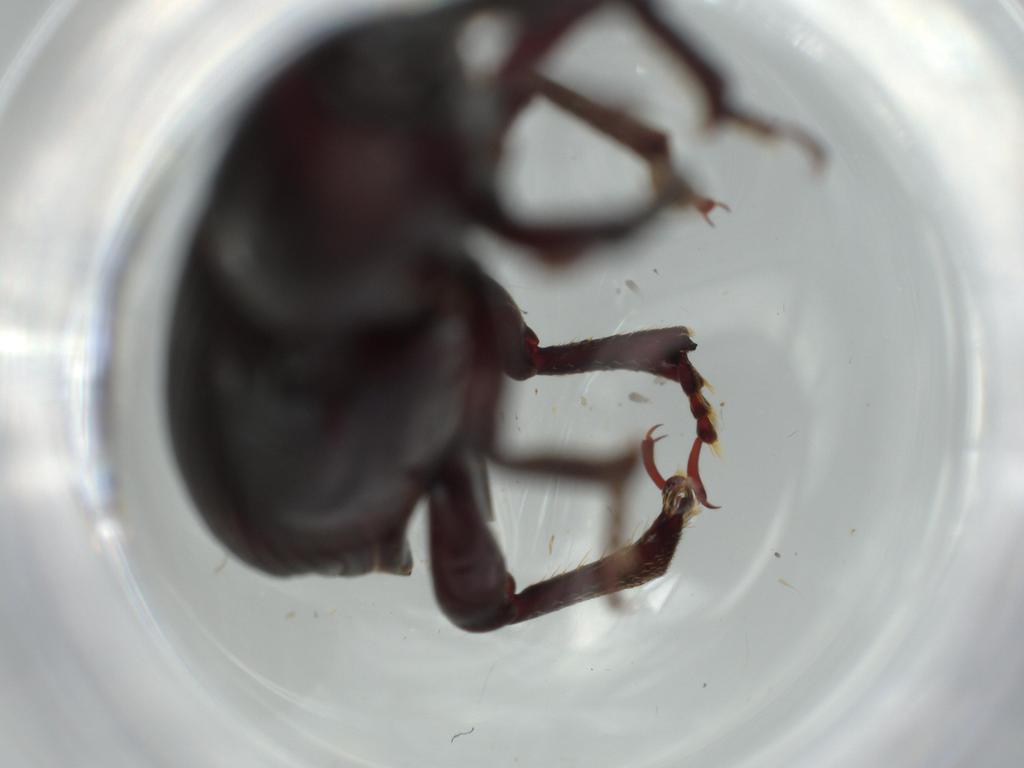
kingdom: Animalia
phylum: Arthropoda
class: Insecta
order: Coleoptera
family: Curculionidae
